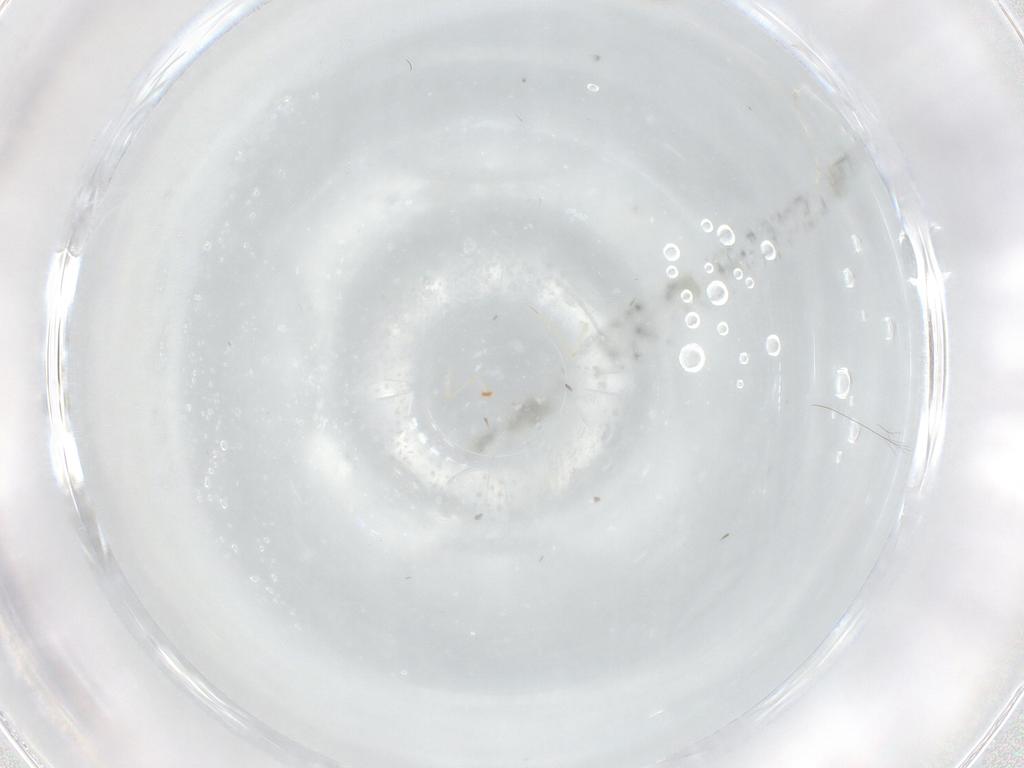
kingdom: Animalia
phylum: Arthropoda
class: Insecta
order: Hemiptera
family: Aleyrodidae
